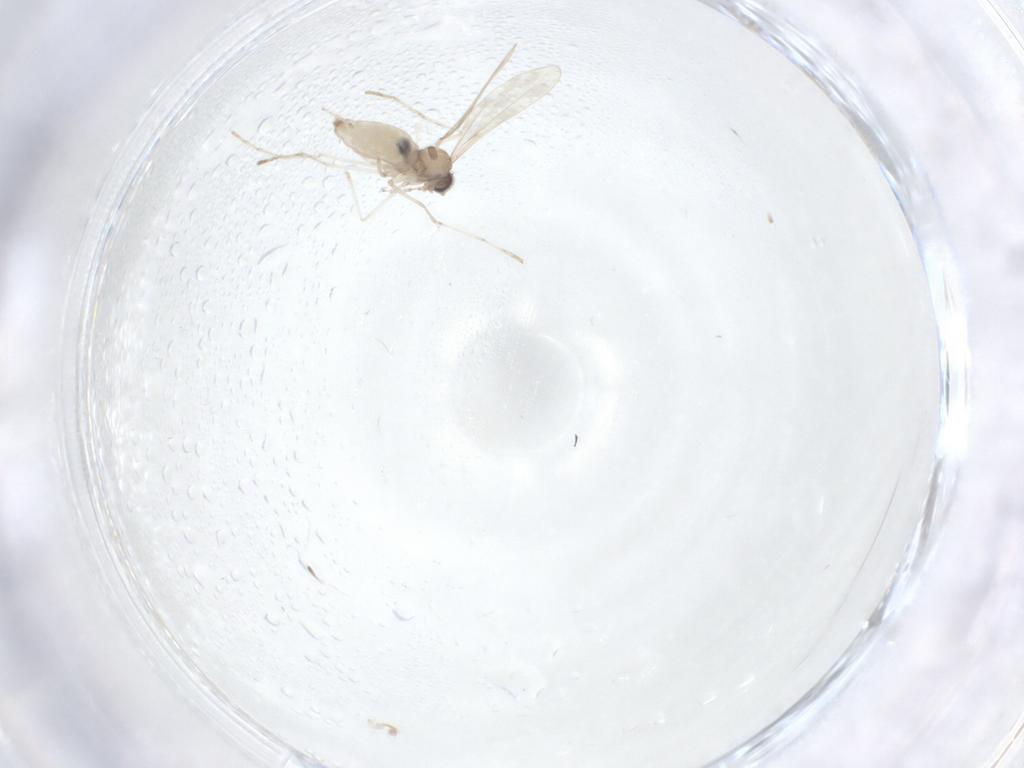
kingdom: Animalia
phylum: Arthropoda
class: Insecta
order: Diptera
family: Cecidomyiidae
